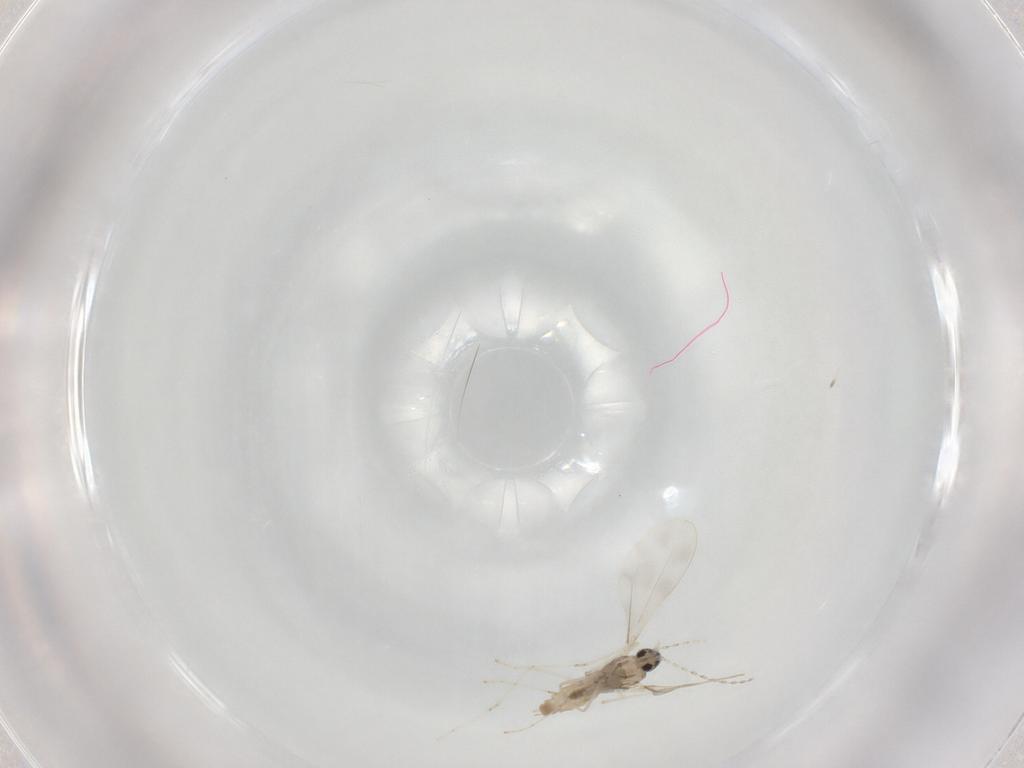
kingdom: Animalia
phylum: Arthropoda
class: Insecta
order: Diptera
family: Cecidomyiidae
